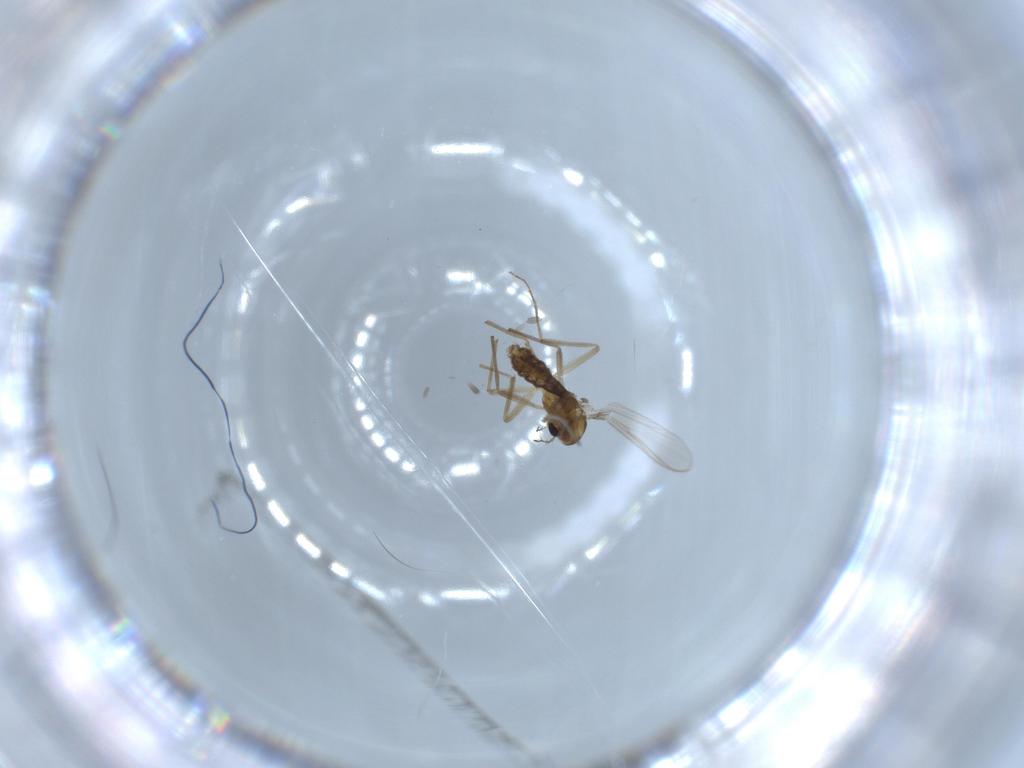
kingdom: Animalia
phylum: Arthropoda
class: Insecta
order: Diptera
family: Chironomidae
